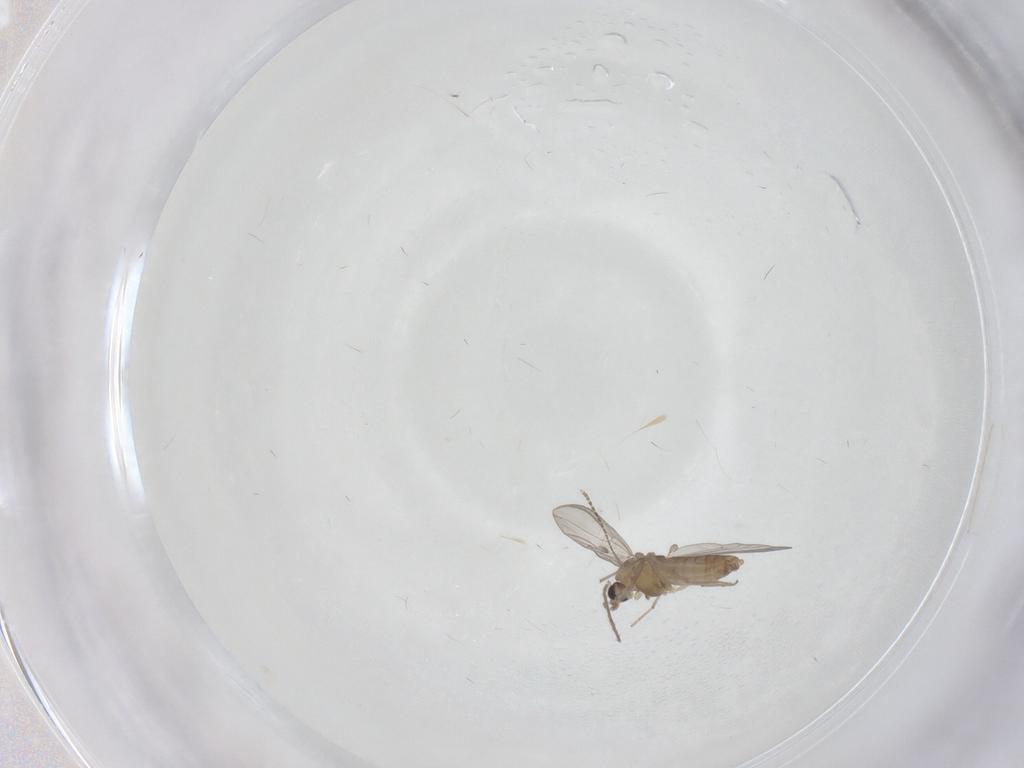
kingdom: Animalia
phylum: Arthropoda
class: Insecta
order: Diptera
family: Chironomidae
